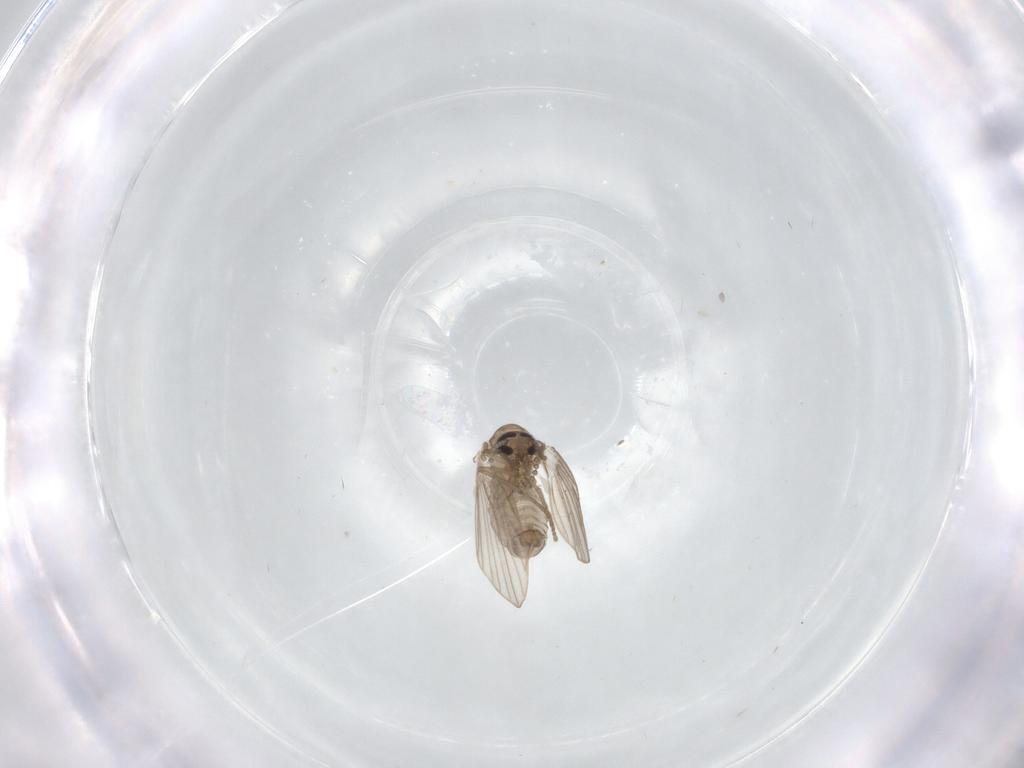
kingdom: Animalia
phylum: Arthropoda
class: Insecta
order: Diptera
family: Psychodidae
